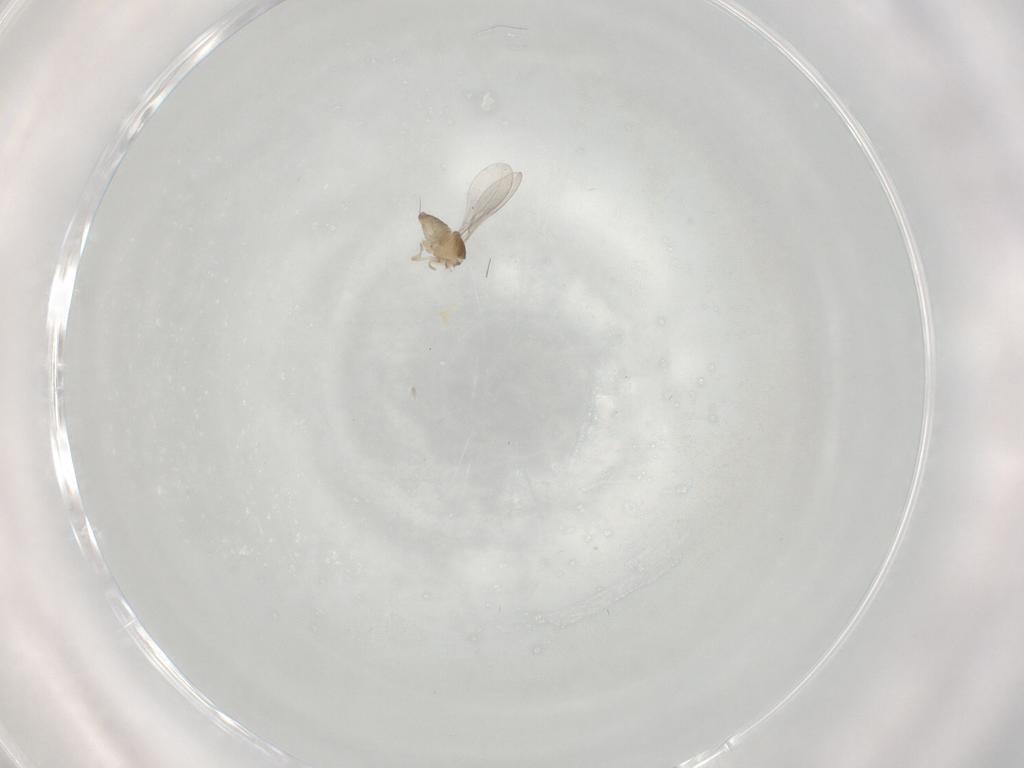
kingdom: Animalia
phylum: Arthropoda
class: Insecta
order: Diptera
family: Cecidomyiidae
